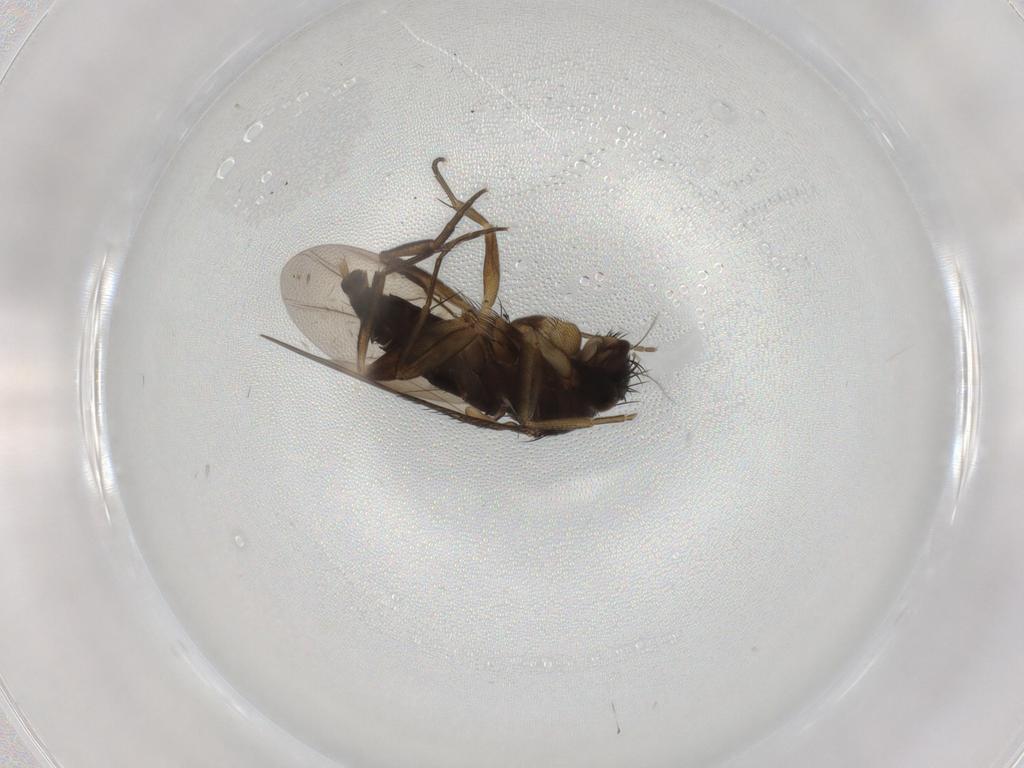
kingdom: Animalia
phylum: Arthropoda
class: Insecta
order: Diptera
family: Phoridae
